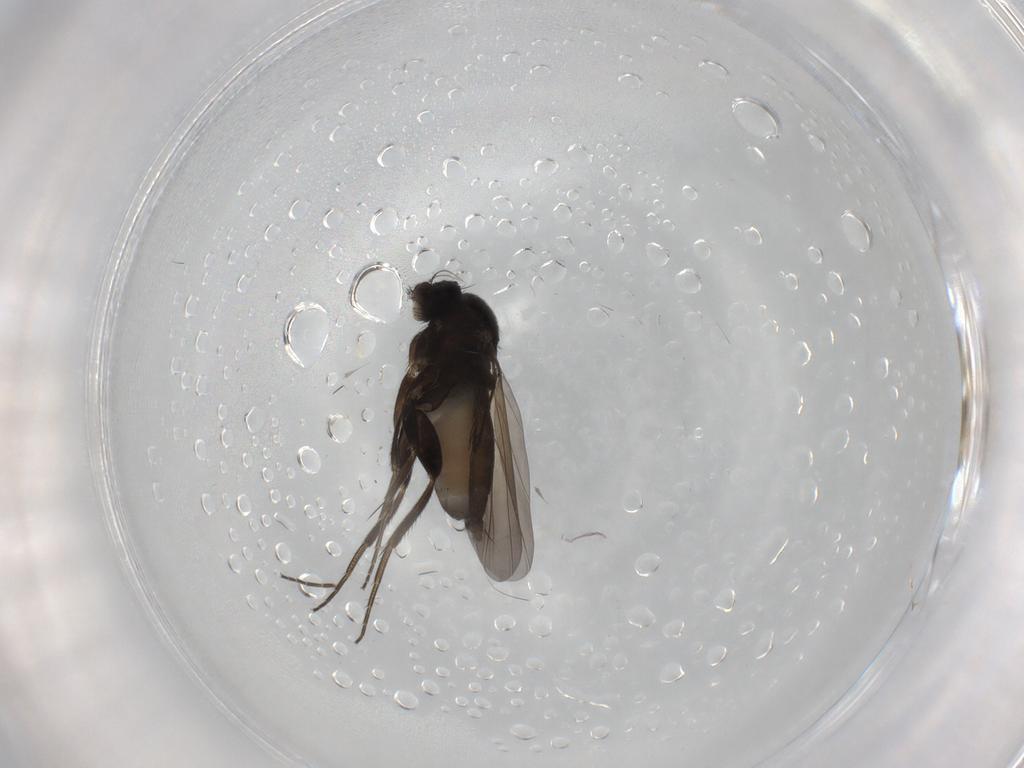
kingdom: Animalia
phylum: Arthropoda
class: Insecta
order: Diptera
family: Phoridae
